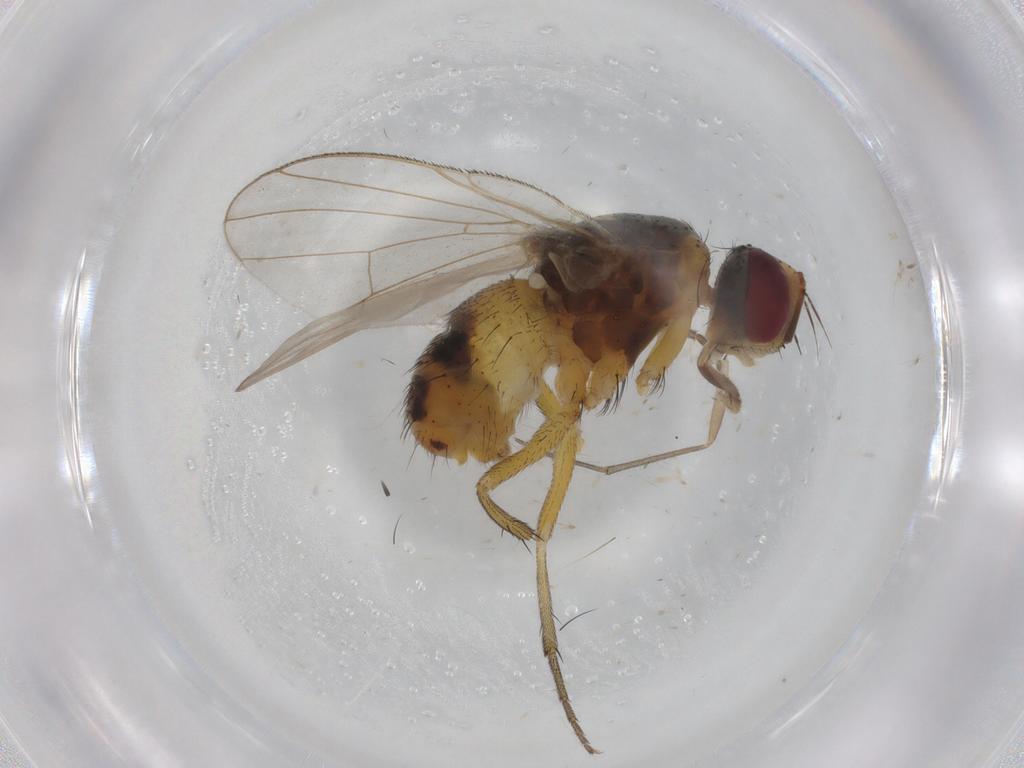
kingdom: Animalia
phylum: Arthropoda
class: Insecta
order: Diptera
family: Muscidae
